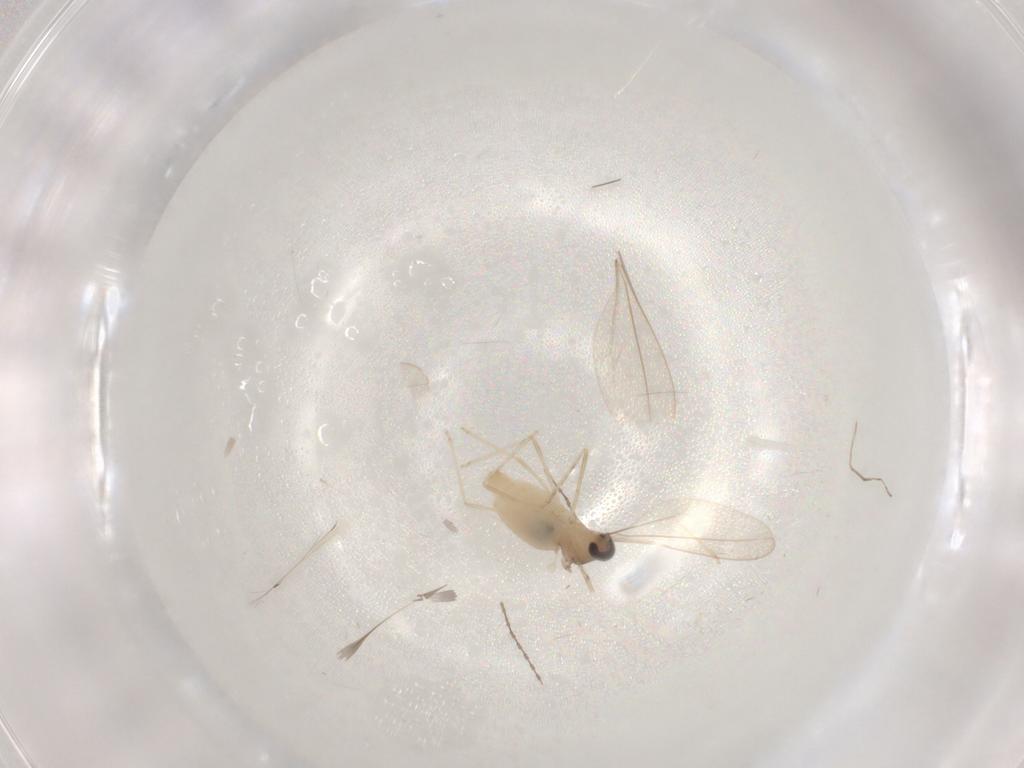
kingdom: Animalia
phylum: Arthropoda
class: Insecta
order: Diptera
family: Cecidomyiidae
